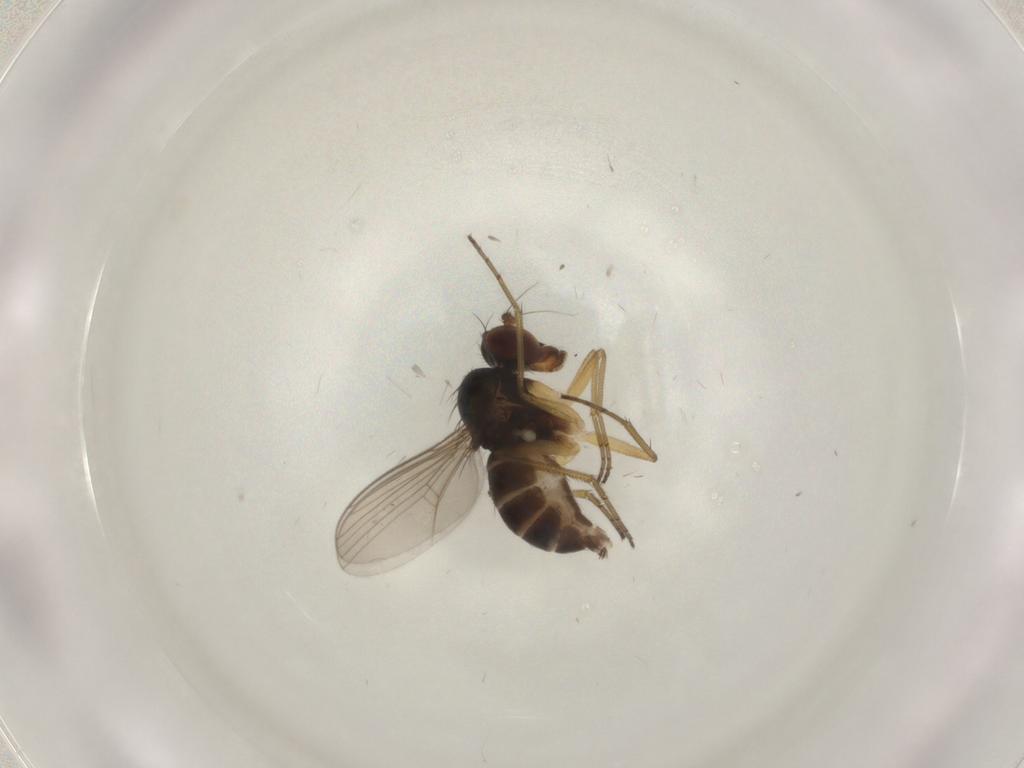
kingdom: Animalia
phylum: Arthropoda
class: Insecta
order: Diptera
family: Dolichopodidae
